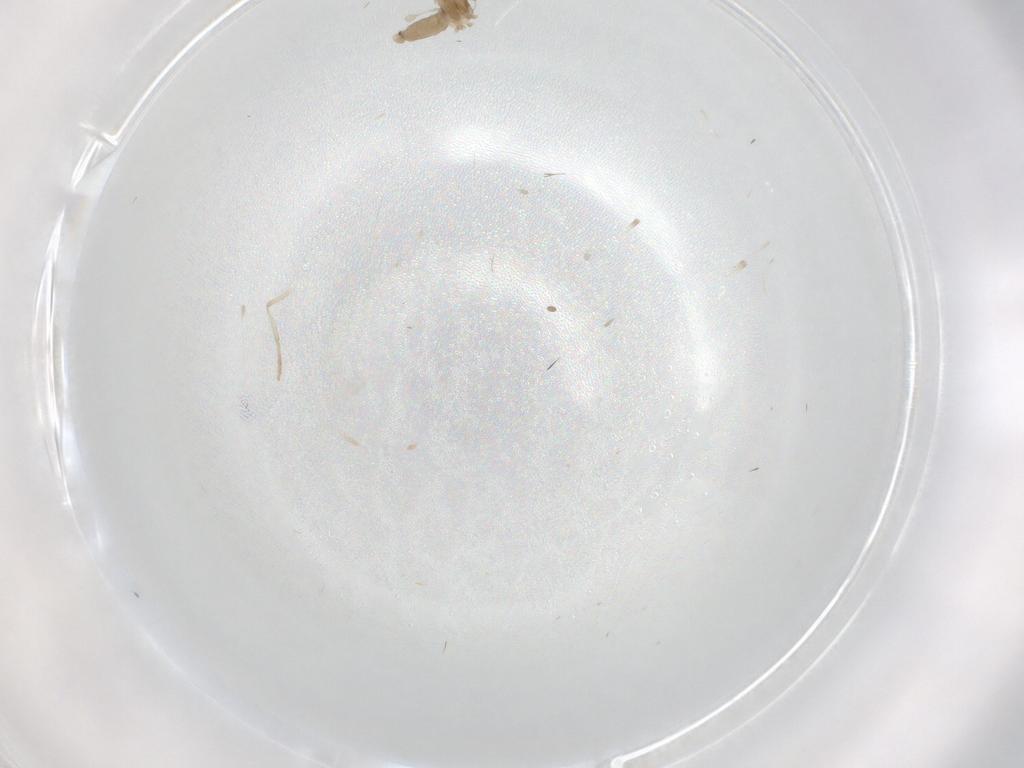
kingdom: Animalia
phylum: Arthropoda
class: Insecta
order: Diptera
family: Cecidomyiidae
